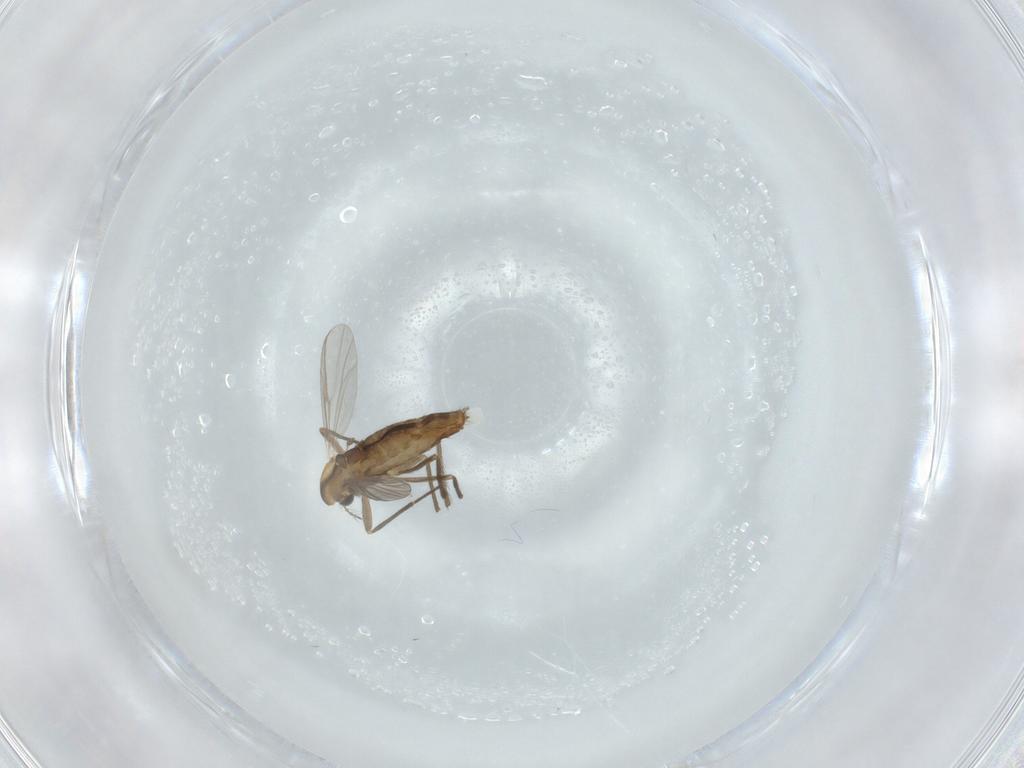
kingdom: Animalia
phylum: Arthropoda
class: Insecta
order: Diptera
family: Chironomidae
